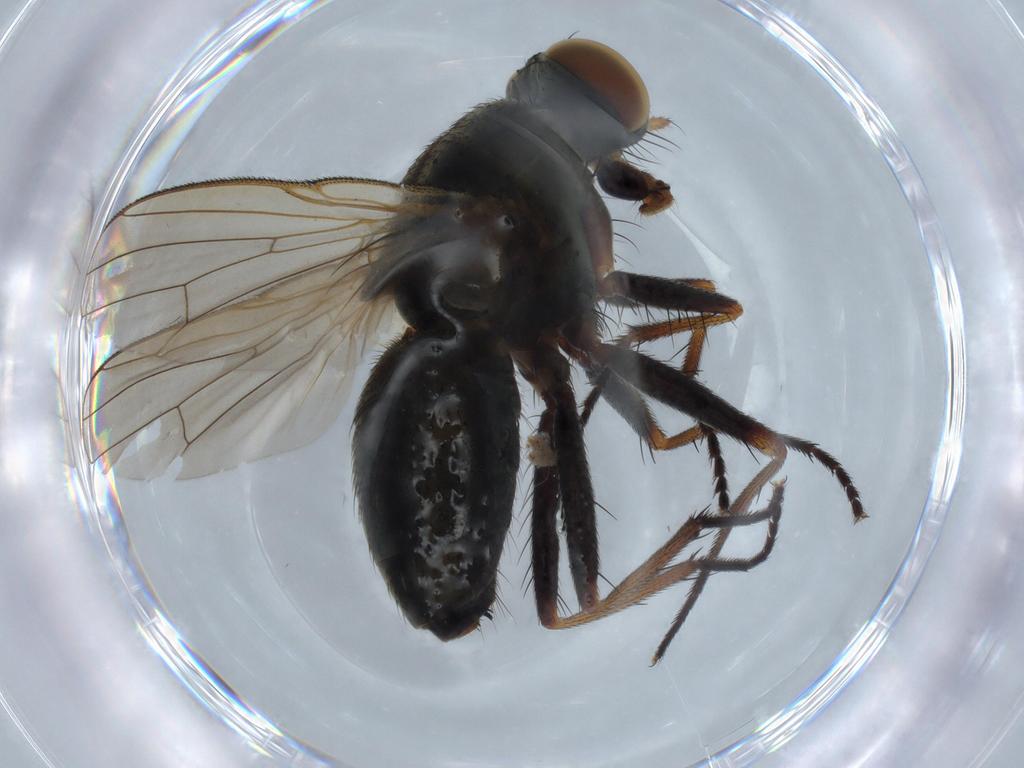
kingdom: Animalia
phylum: Arthropoda
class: Insecta
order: Diptera
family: Muscidae
